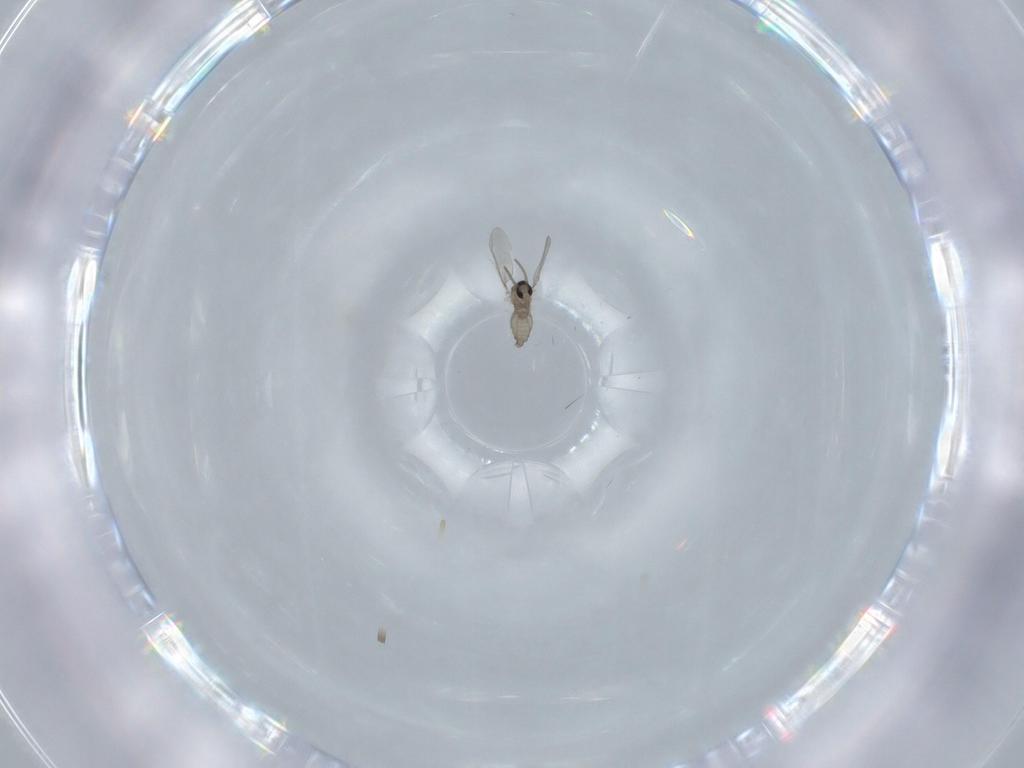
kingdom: Animalia
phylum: Arthropoda
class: Insecta
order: Diptera
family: Cecidomyiidae
